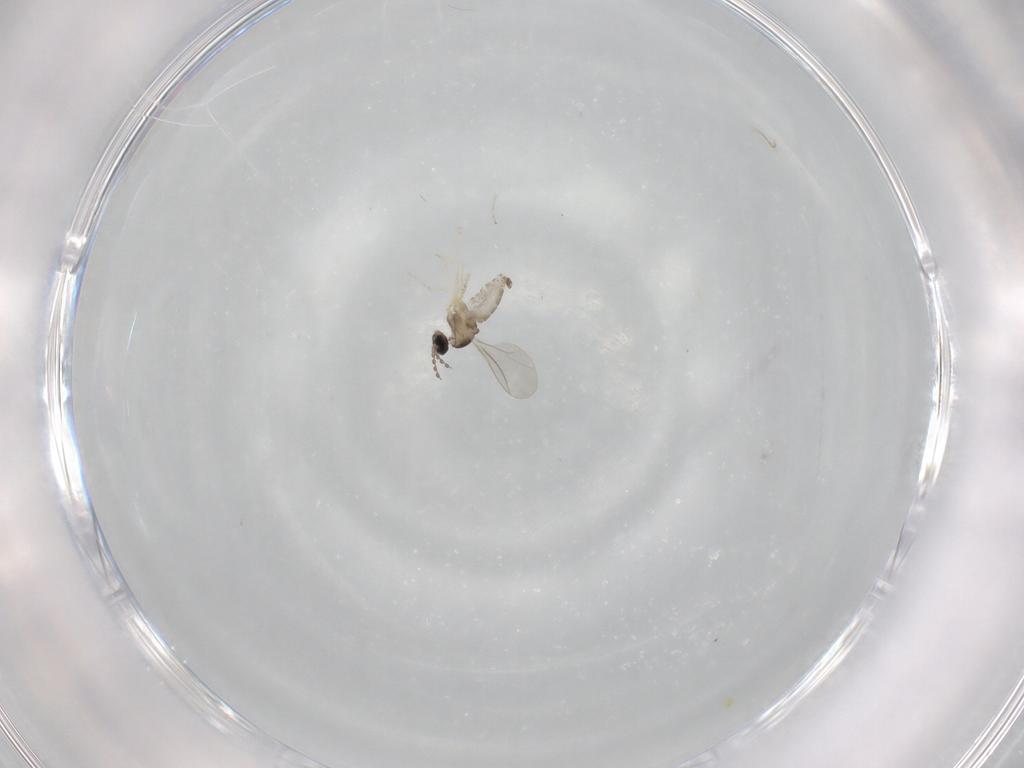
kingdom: Animalia
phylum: Arthropoda
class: Insecta
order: Diptera
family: Cecidomyiidae
